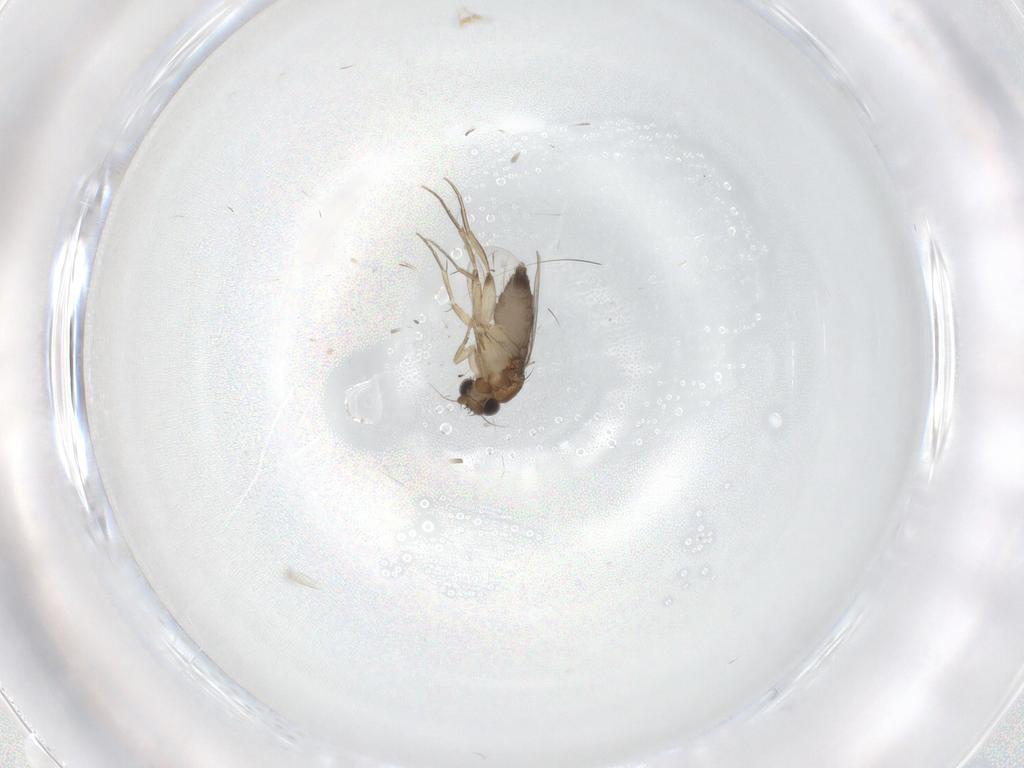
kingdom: Animalia
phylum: Arthropoda
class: Insecta
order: Diptera
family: Cecidomyiidae
